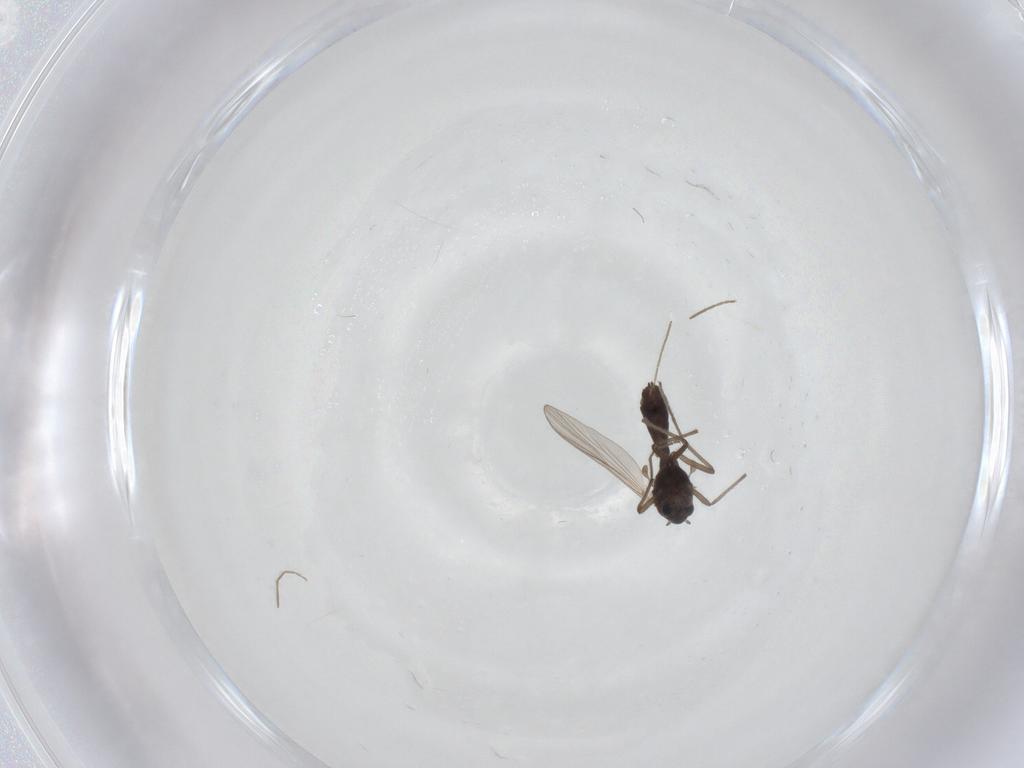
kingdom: Animalia
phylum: Arthropoda
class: Insecta
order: Diptera
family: Chironomidae
